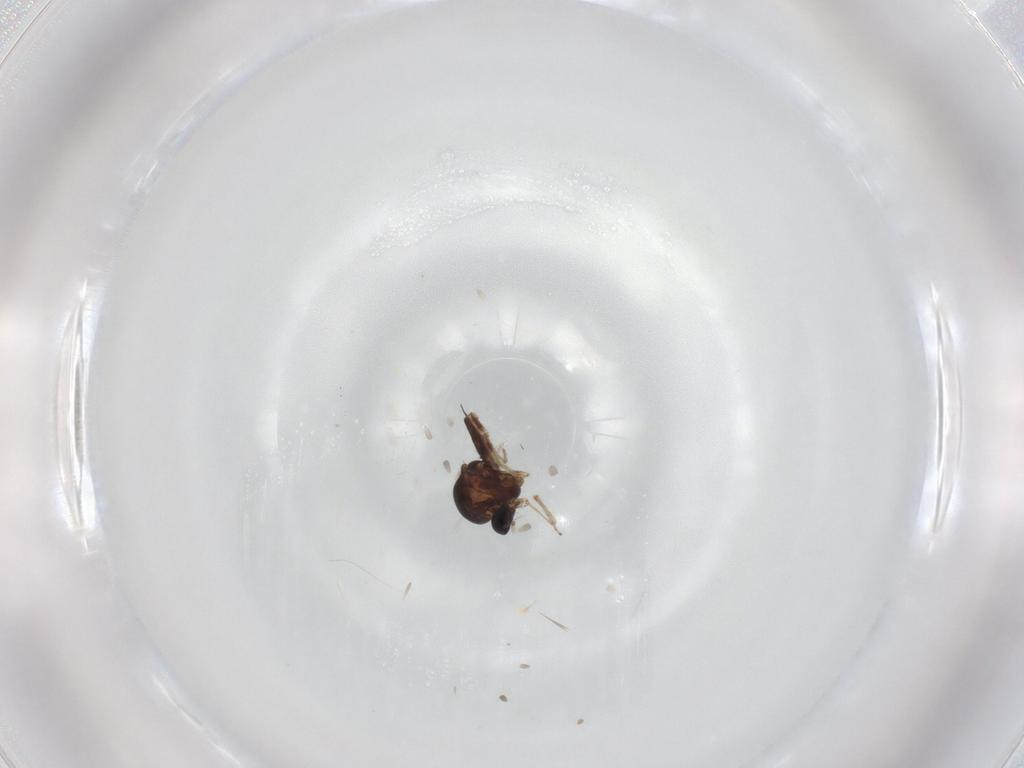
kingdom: Animalia
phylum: Arthropoda
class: Insecta
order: Diptera
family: Ceratopogonidae
